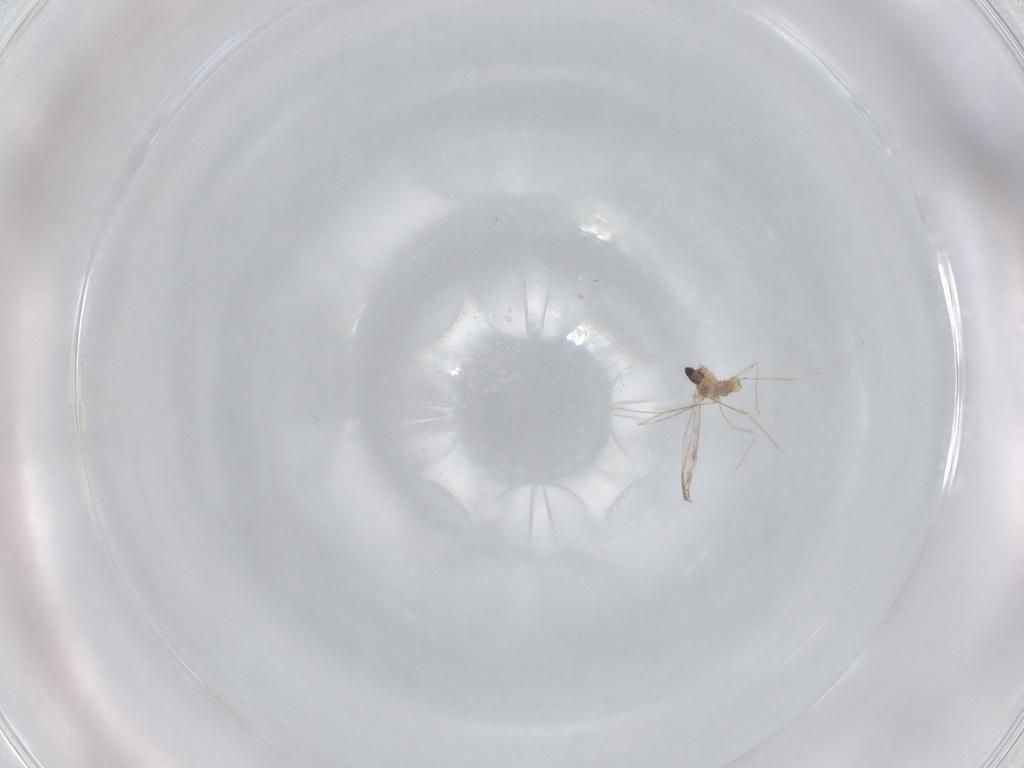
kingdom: Animalia
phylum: Arthropoda
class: Insecta
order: Diptera
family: Cecidomyiidae
